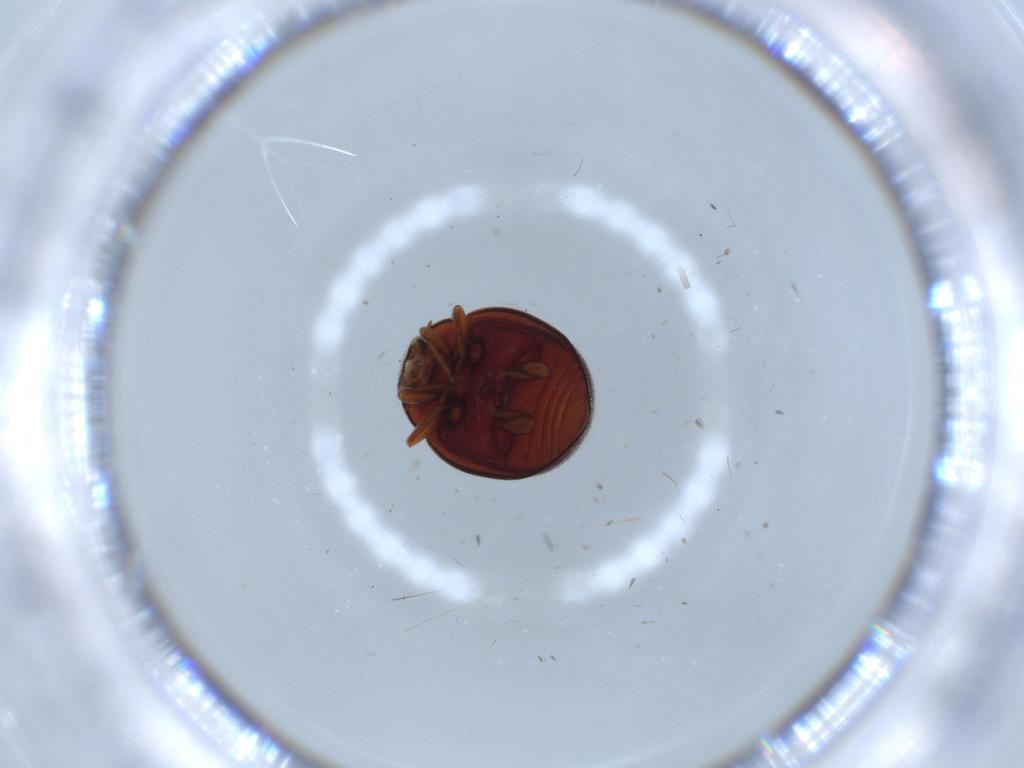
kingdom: Animalia
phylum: Arthropoda
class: Insecta
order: Coleoptera
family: Coccinellidae
